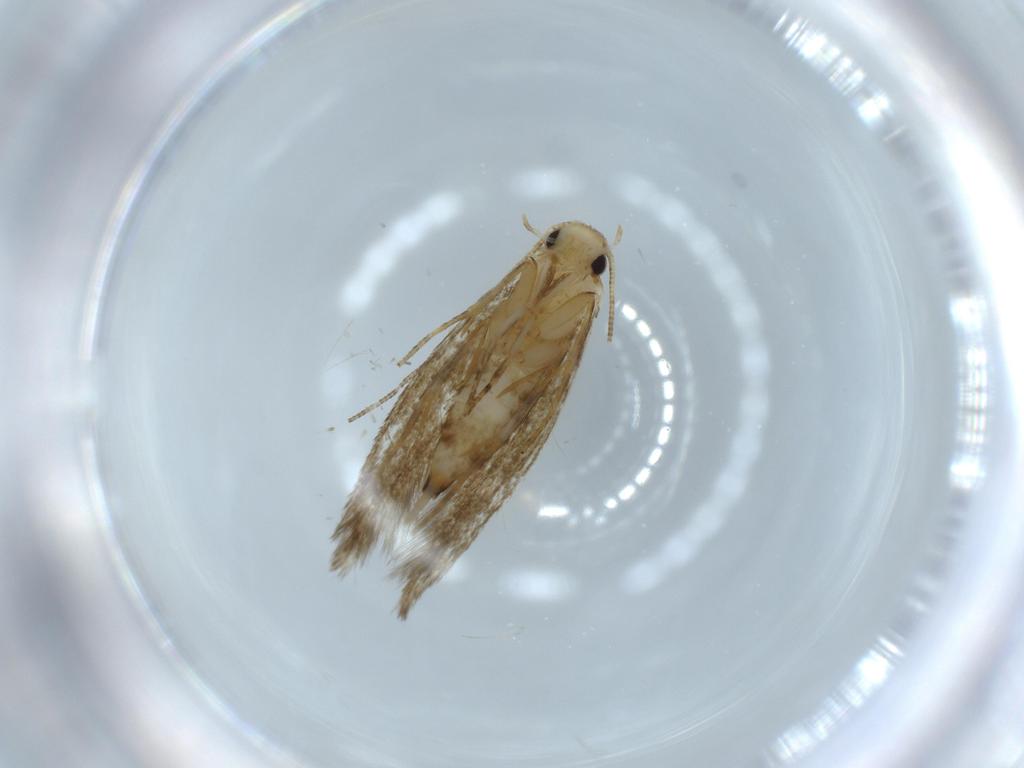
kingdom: Animalia
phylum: Arthropoda
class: Insecta
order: Lepidoptera
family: Tineidae
